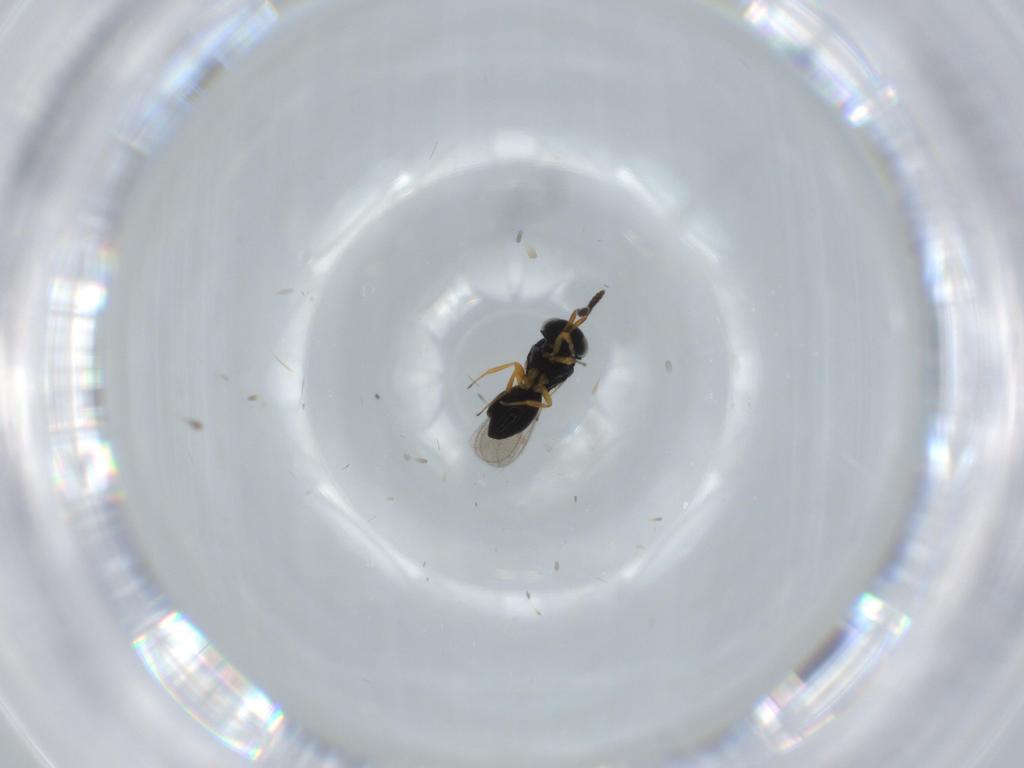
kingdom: Animalia
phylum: Arthropoda
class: Insecta
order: Hymenoptera
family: Scelionidae
